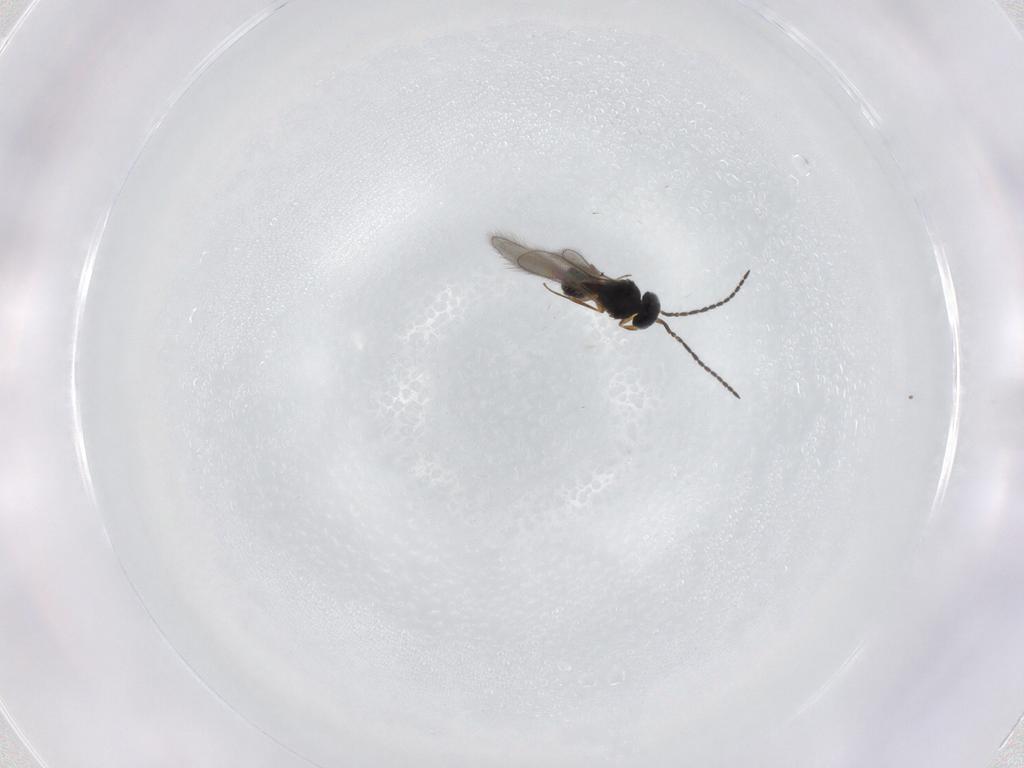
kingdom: Animalia
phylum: Arthropoda
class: Insecta
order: Hymenoptera
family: Scelionidae
